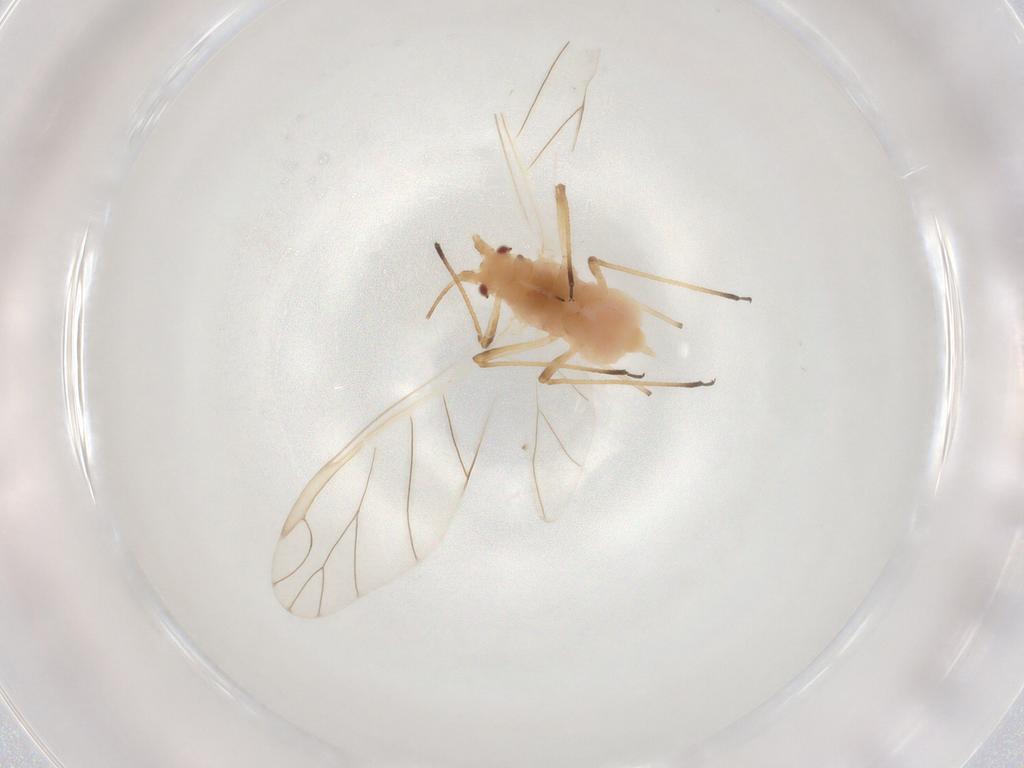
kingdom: Animalia
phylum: Arthropoda
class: Insecta
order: Hemiptera
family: Aphididae
